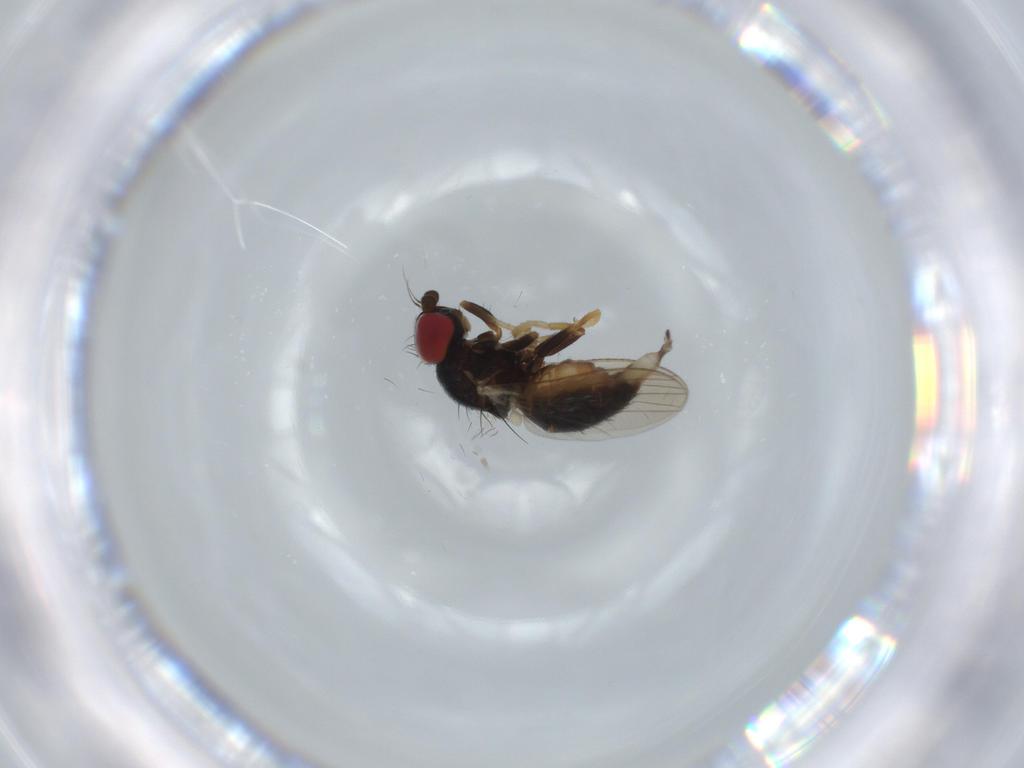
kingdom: Animalia
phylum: Arthropoda
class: Insecta
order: Diptera
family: Chamaemyiidae
